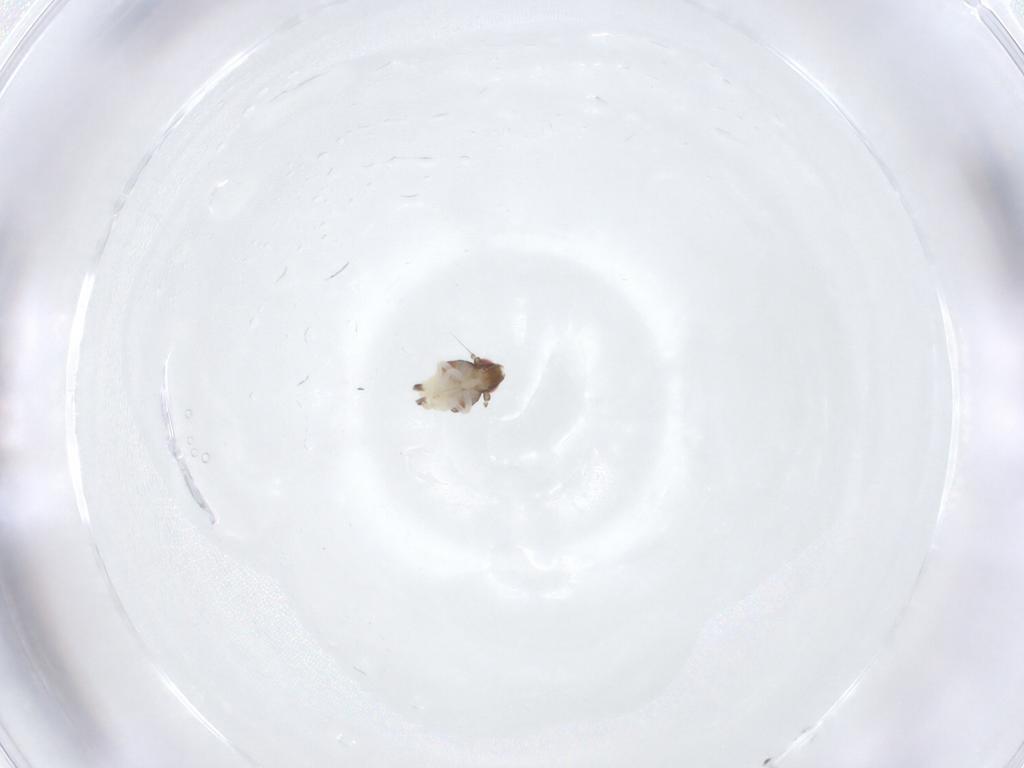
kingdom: Animalia
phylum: Arthropoda
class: Insecta
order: Hemiptera
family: Nogodinidae
